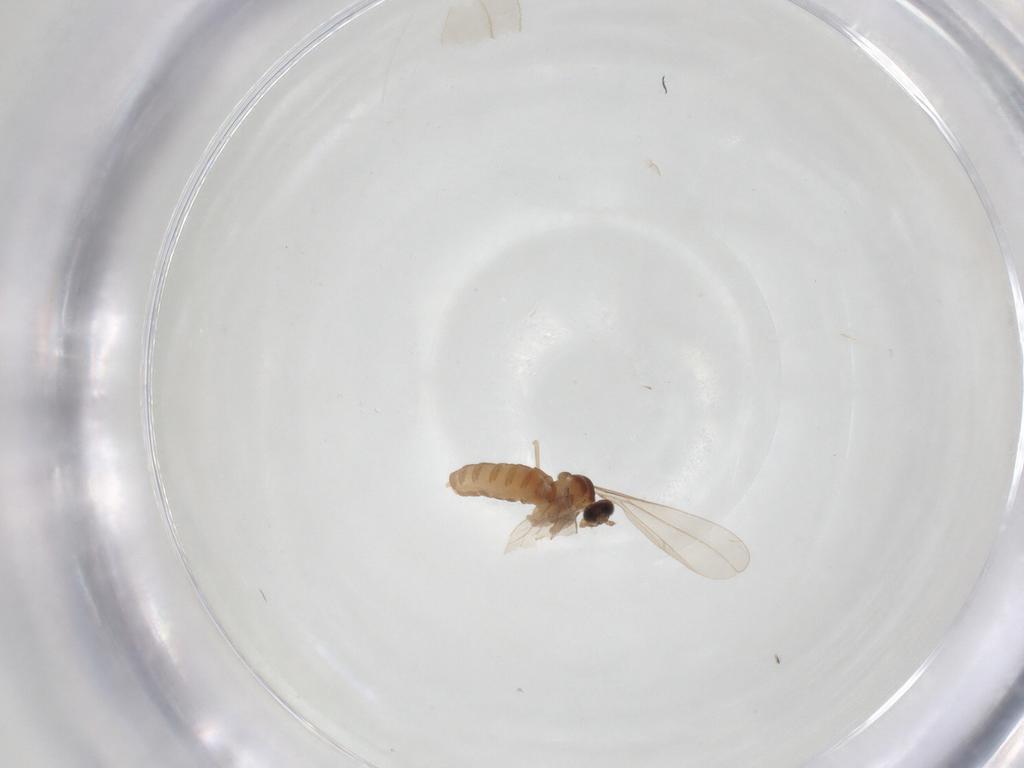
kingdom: Animalia
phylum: Arthropoda
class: Insecta
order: Diptera
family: Cecidomyiidae
